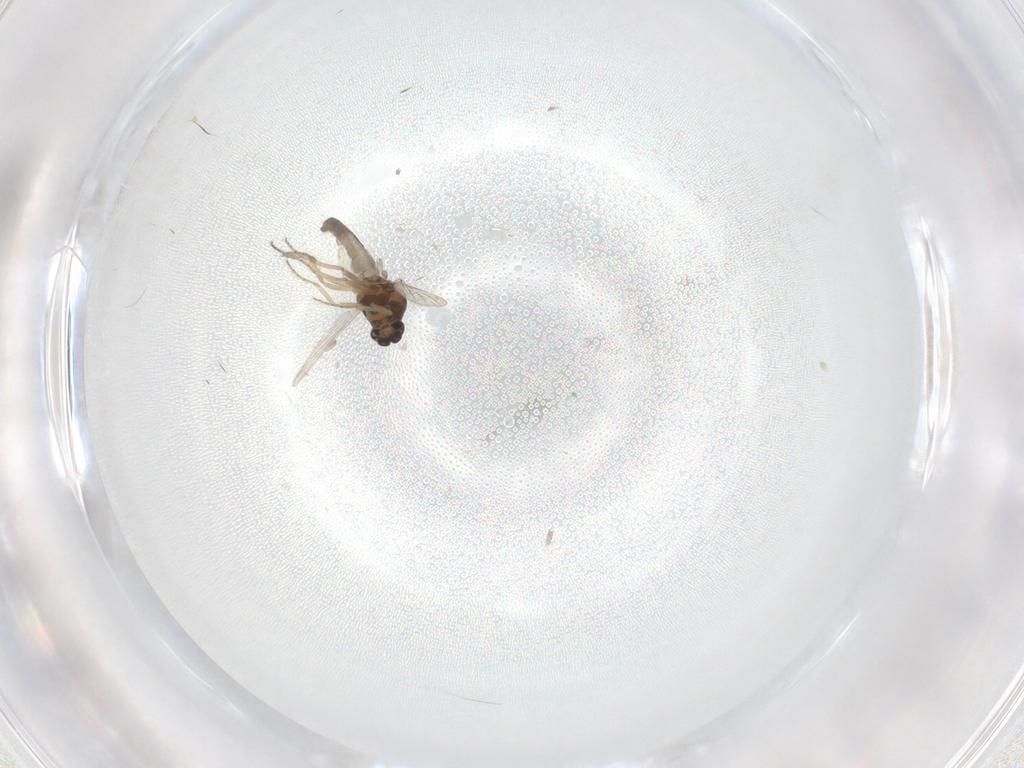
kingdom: Animalia
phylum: Arthropoda
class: Insecta
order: Diptera
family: Ceratopogonidae
